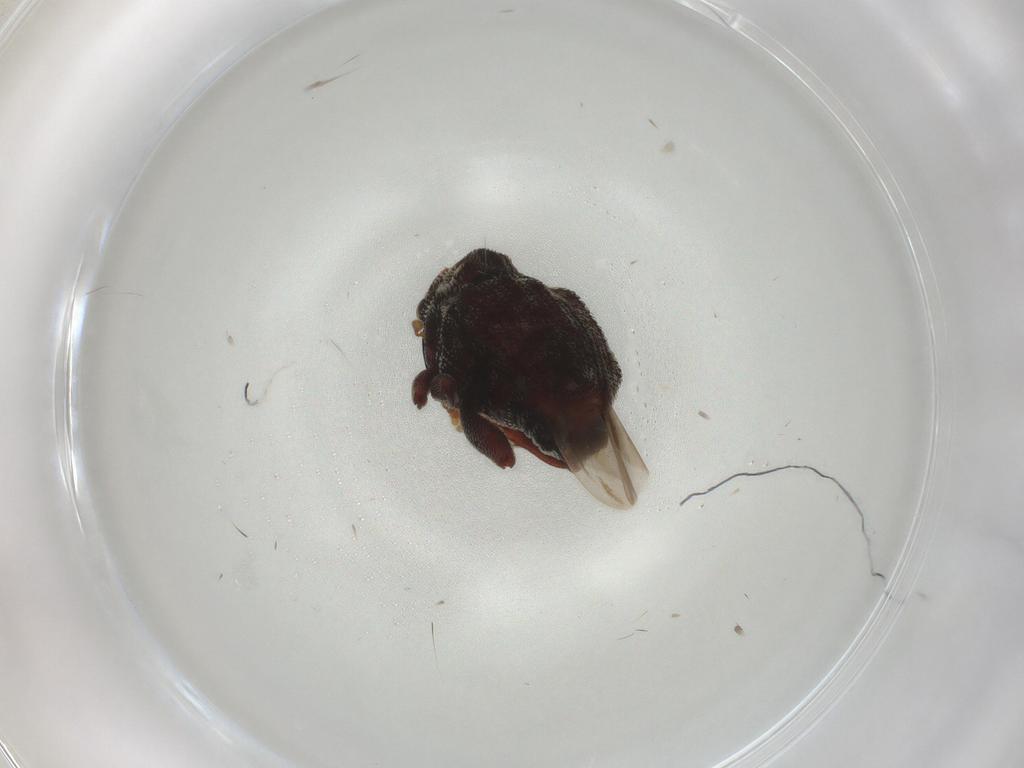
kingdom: Animalia
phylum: Arthropoda
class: Insecta
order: Coleoptera
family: Mordellidae
